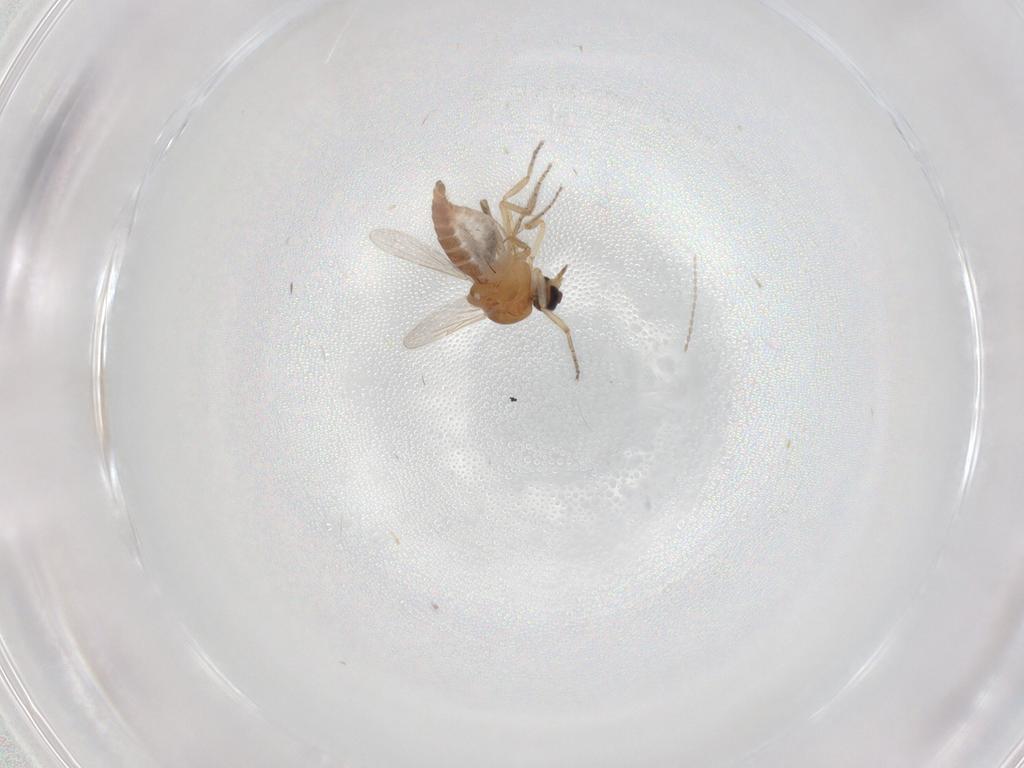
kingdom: Animalia
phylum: Arthropoda
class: Insecta
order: Diptera
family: Ceratopogonidae
